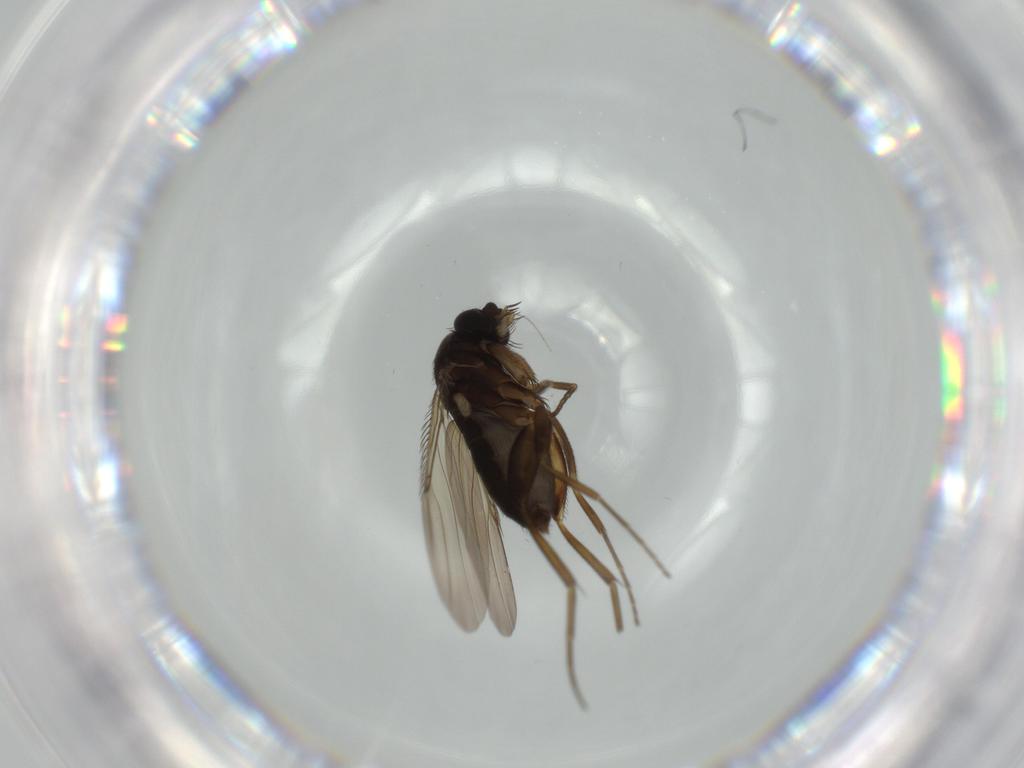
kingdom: Animalia
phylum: Arthropoda
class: Insecta
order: Diptera
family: Phoridae
